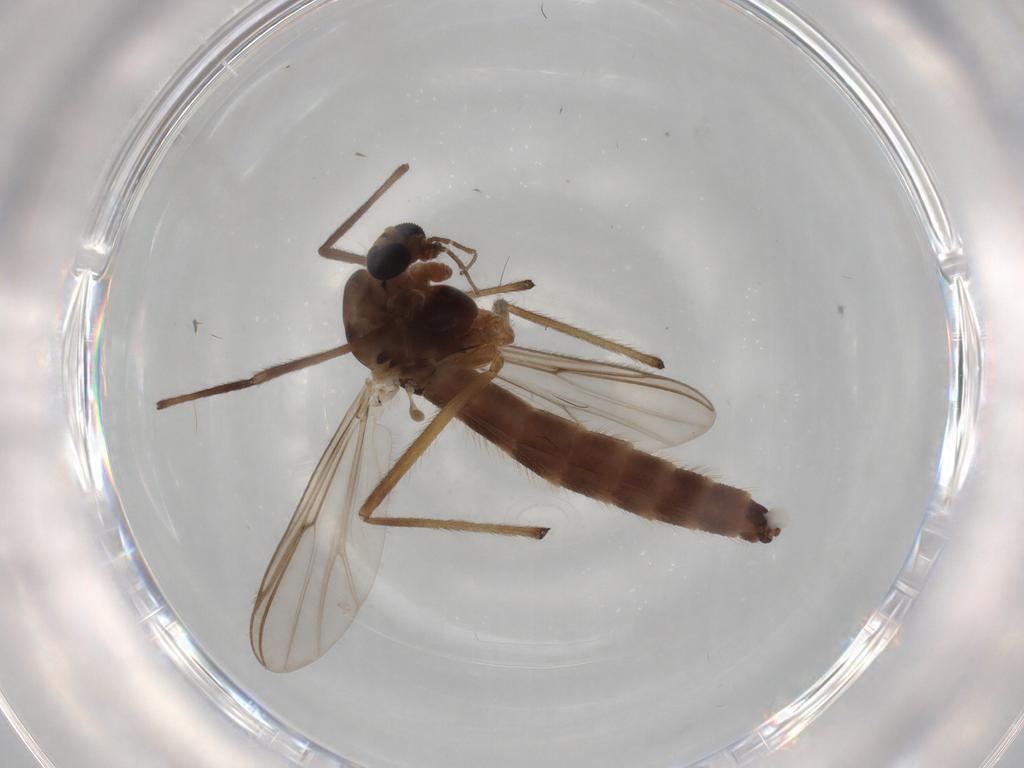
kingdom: Animalia
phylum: Arthropoda
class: Insecta
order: Diptera
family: Chironomidae
